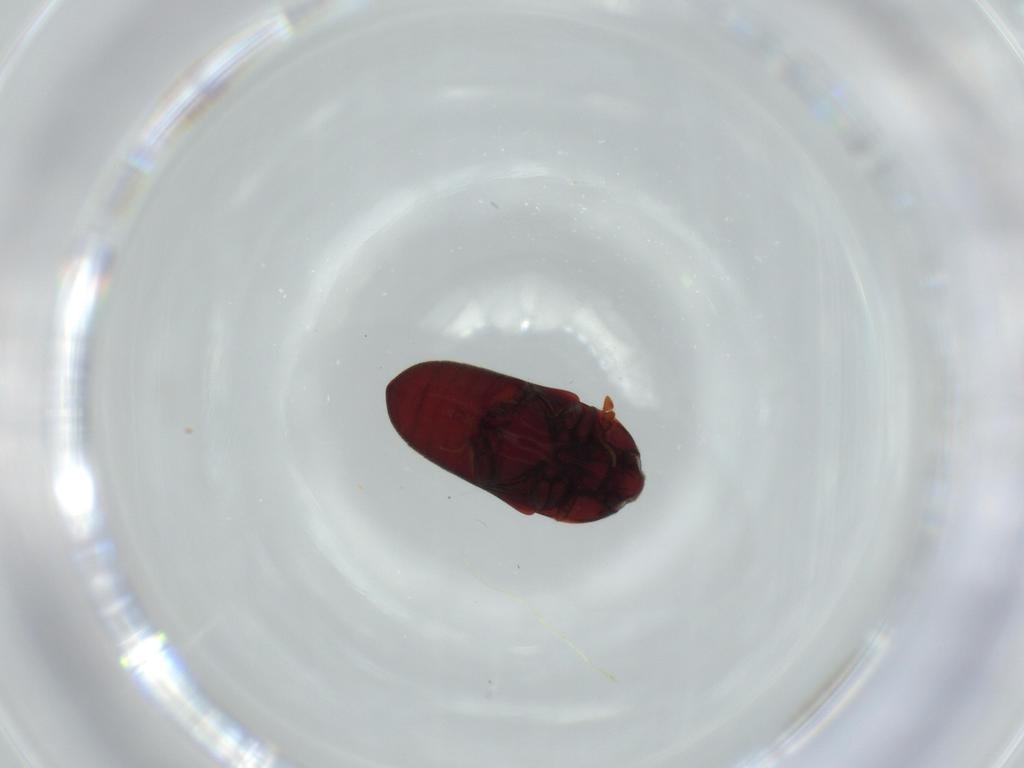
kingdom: Animalia
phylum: Arthropoda
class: Insecta
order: Coleoptera
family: Throscidae
